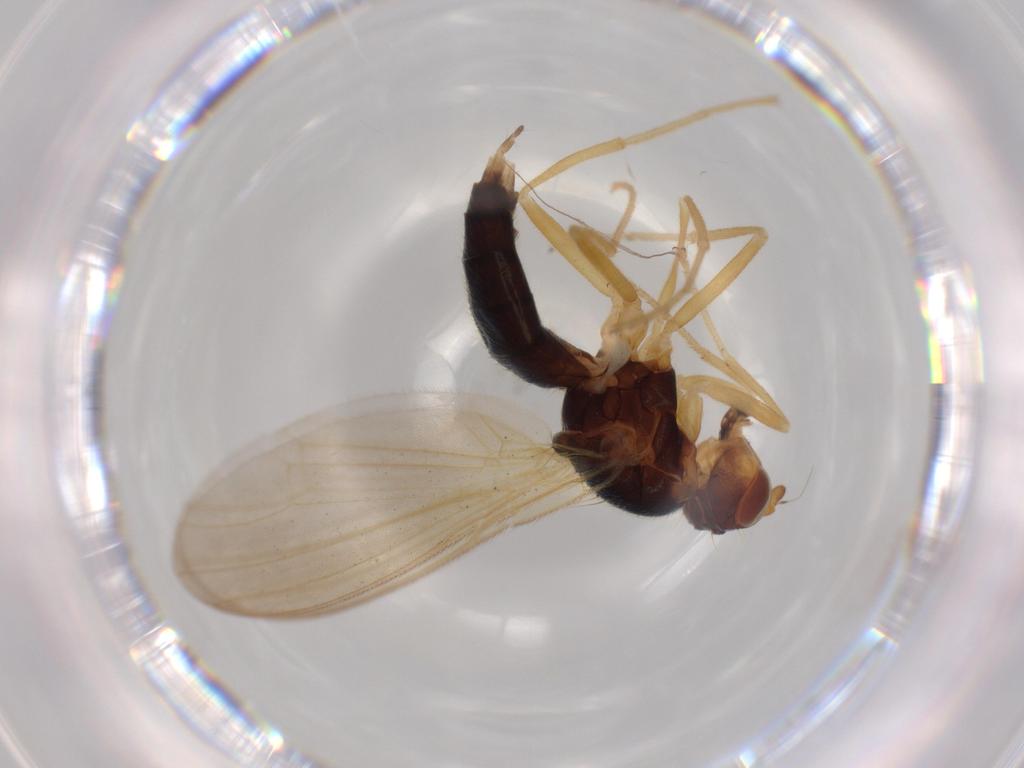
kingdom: Animalia
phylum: Arthropoda
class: Insecta
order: Diptera
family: Psilidae
